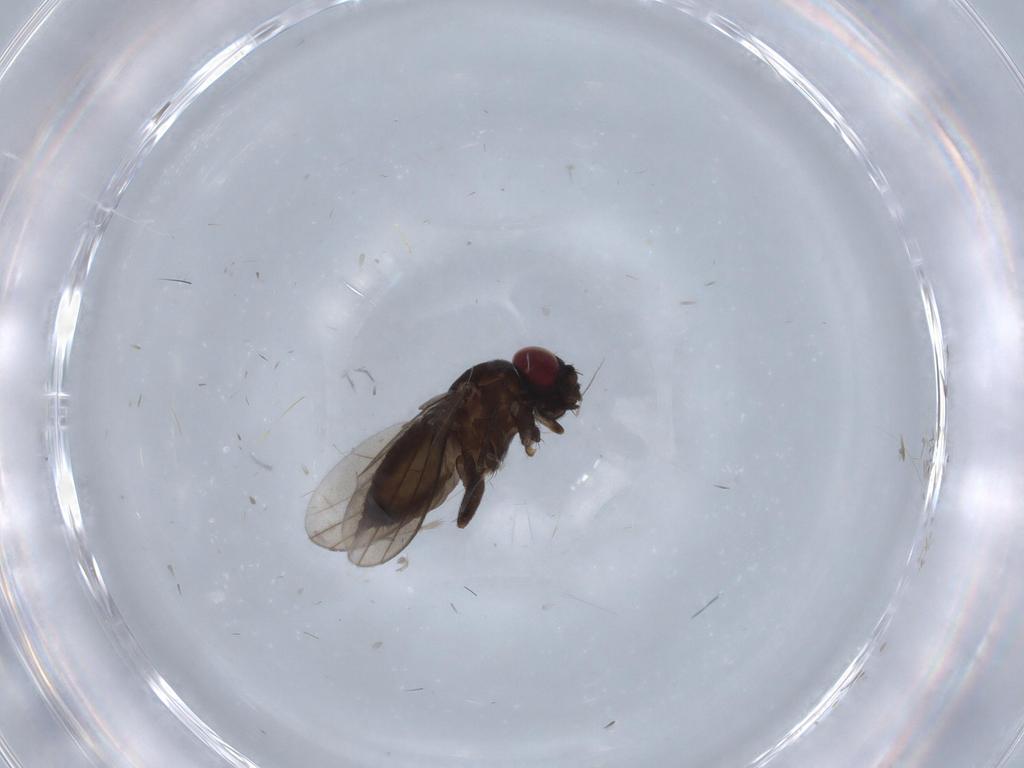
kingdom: Animalia
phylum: Arthropoda
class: Insecta
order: Diptera
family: Milichiidae
